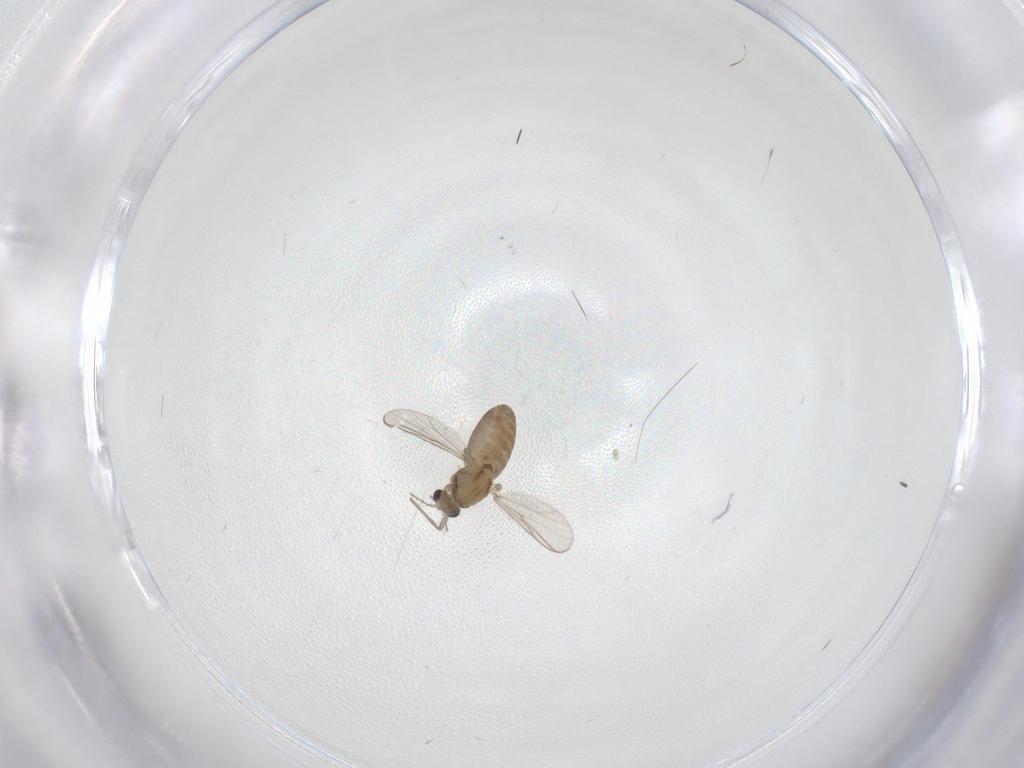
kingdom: Animalia
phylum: Arthropoda
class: Insecta
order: Diptera
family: Chironomidae
